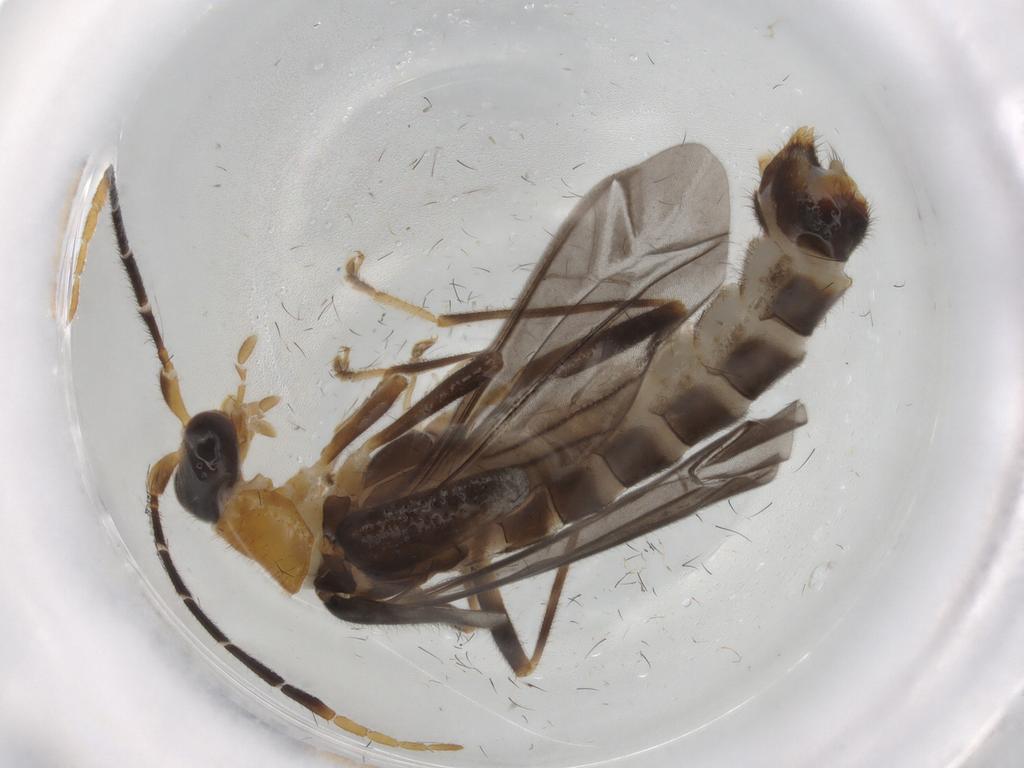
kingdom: Animalia
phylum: Arthropoda
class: Insecta
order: Coleoptera
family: Cantharidae
